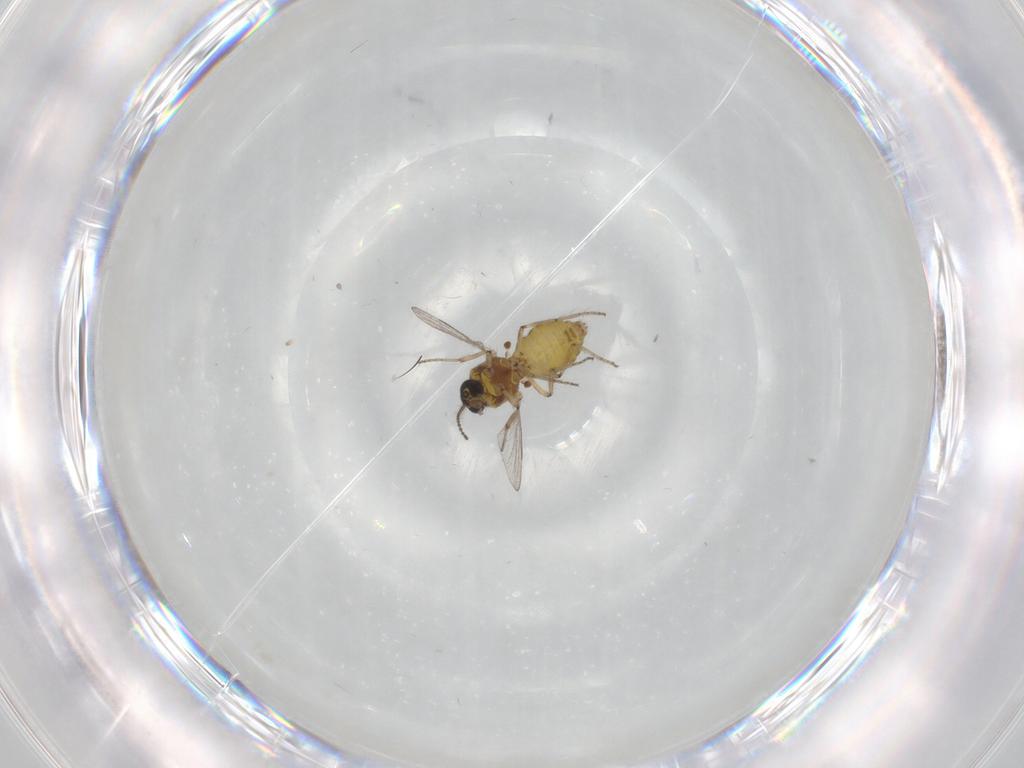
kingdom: Animalia
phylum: Arthropoda
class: Insecta
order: Diptera
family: Ceratopogonidae
